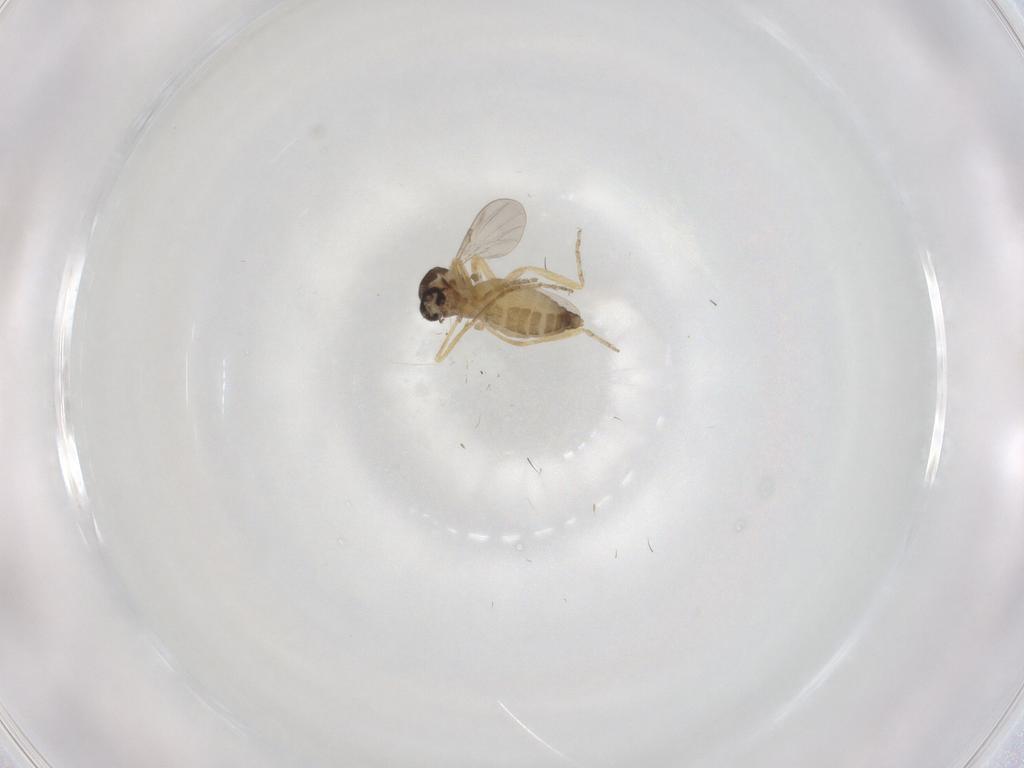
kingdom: Animalia
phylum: Arthropoda
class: Insecta
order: Diptera
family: Ceratopogonidae
